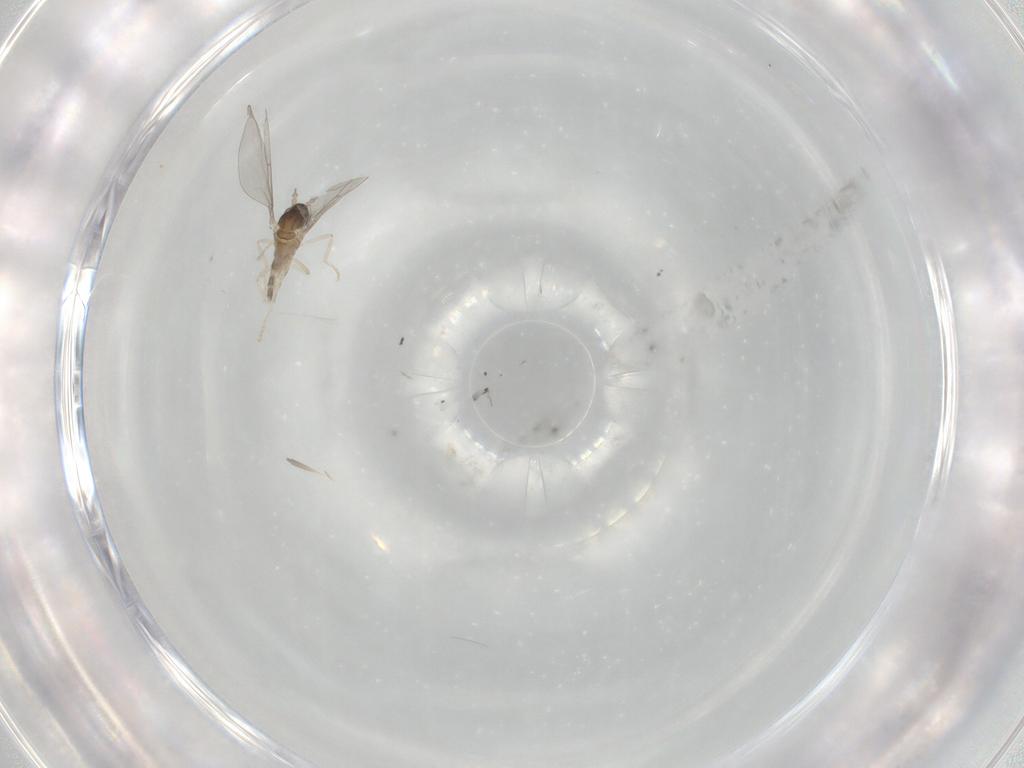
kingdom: Animalia
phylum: Arthropoda
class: Insecta
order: Diptera
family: Cecidomyiidae
